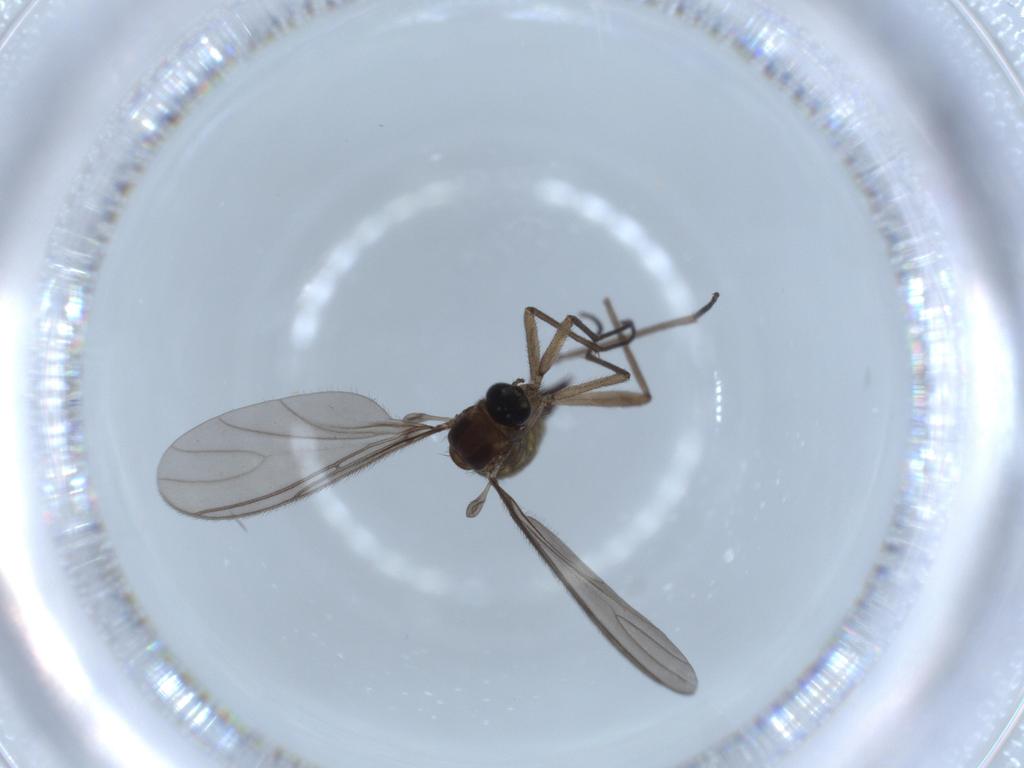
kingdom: Animalia
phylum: Arthropoda
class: Insecta
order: Diptera
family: Sciaridae
